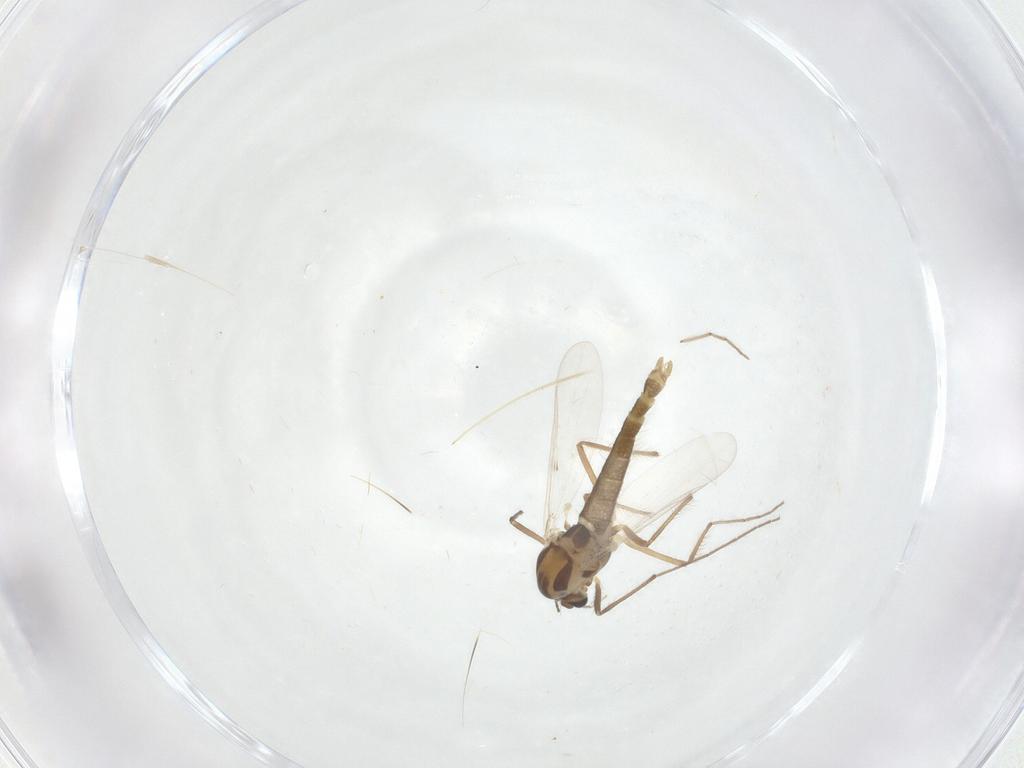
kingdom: Animalia
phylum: Arthropoda
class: Insecta
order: Diptera
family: Chironomidae
